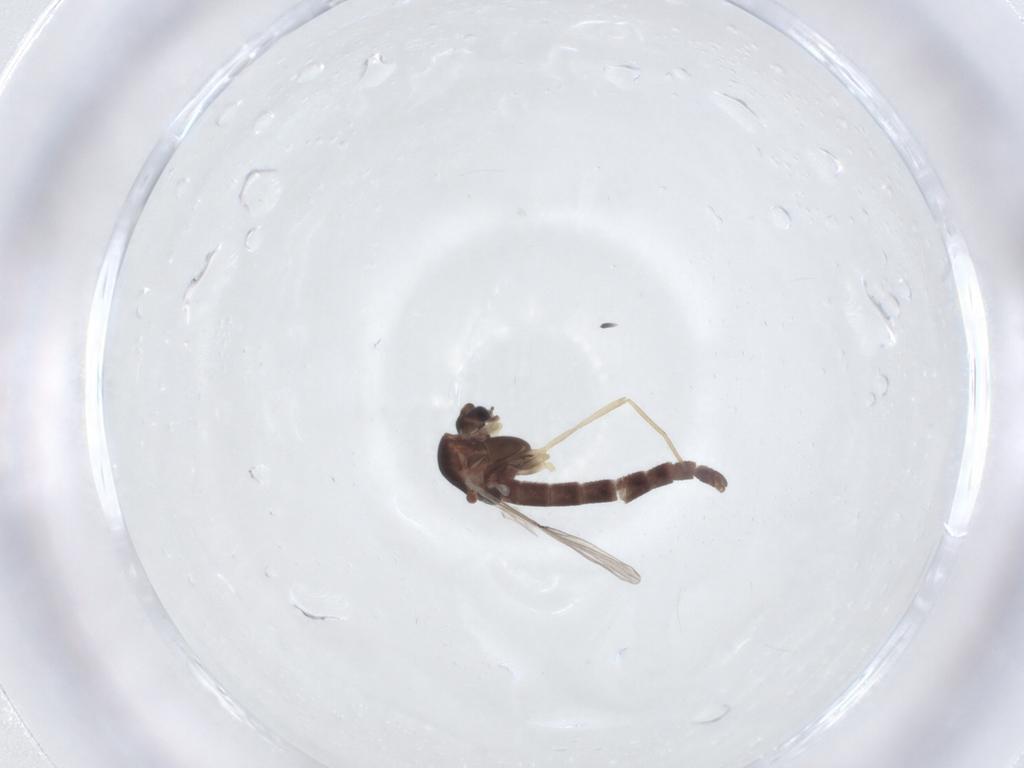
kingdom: Animalia
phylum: Arthropoda
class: Insecta
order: Diptera
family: Chironomidae
